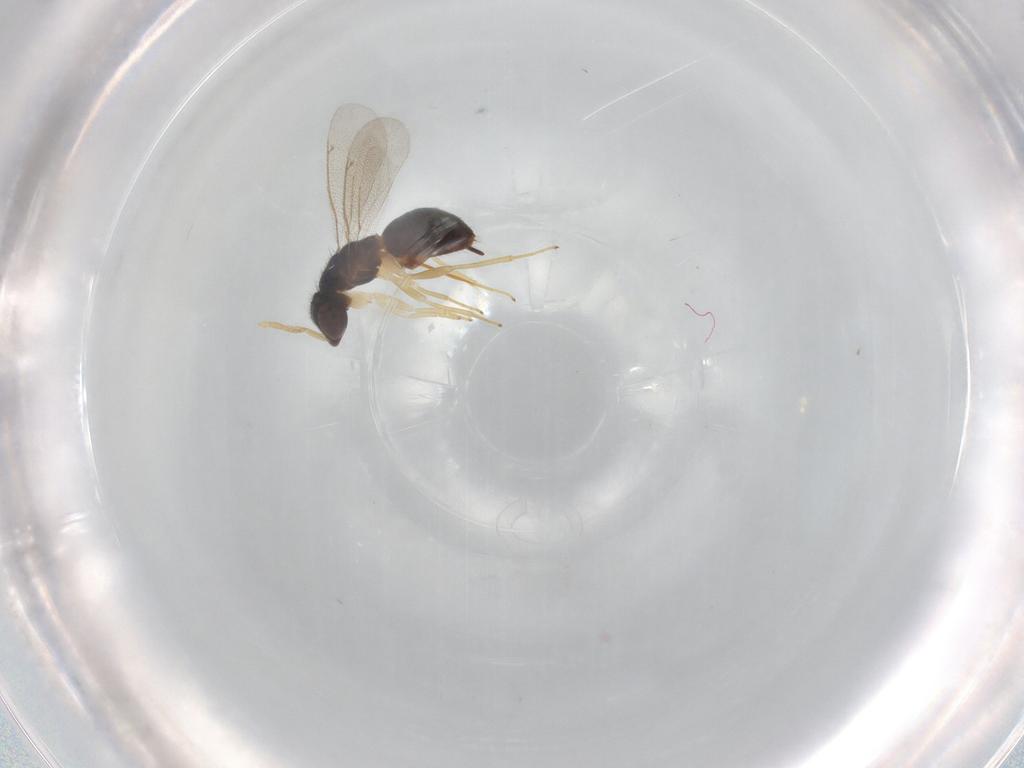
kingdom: Animalia
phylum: Arthropoda
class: Insecta
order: Hymenoptera
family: Eulophidae
